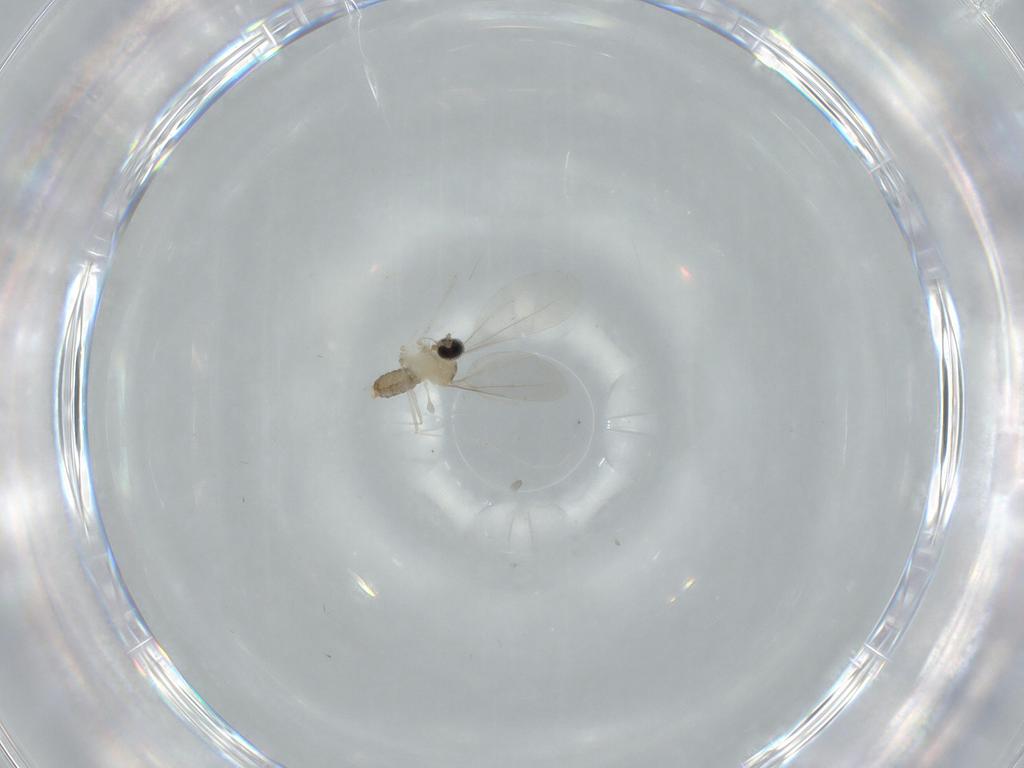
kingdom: Animalia
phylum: Arthropoda
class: Insecta
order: Diptera
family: Cecidomyiidae
